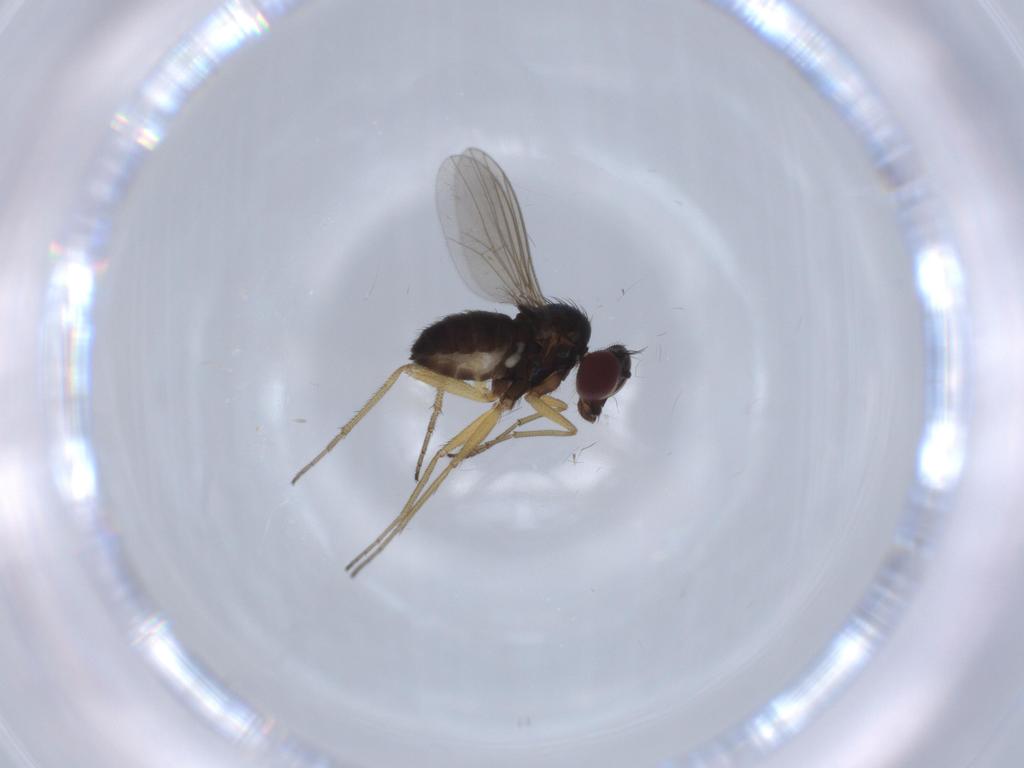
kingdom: Animalia
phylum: Arthropoda
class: Insecta
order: Diptera
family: Dolichopodidae
